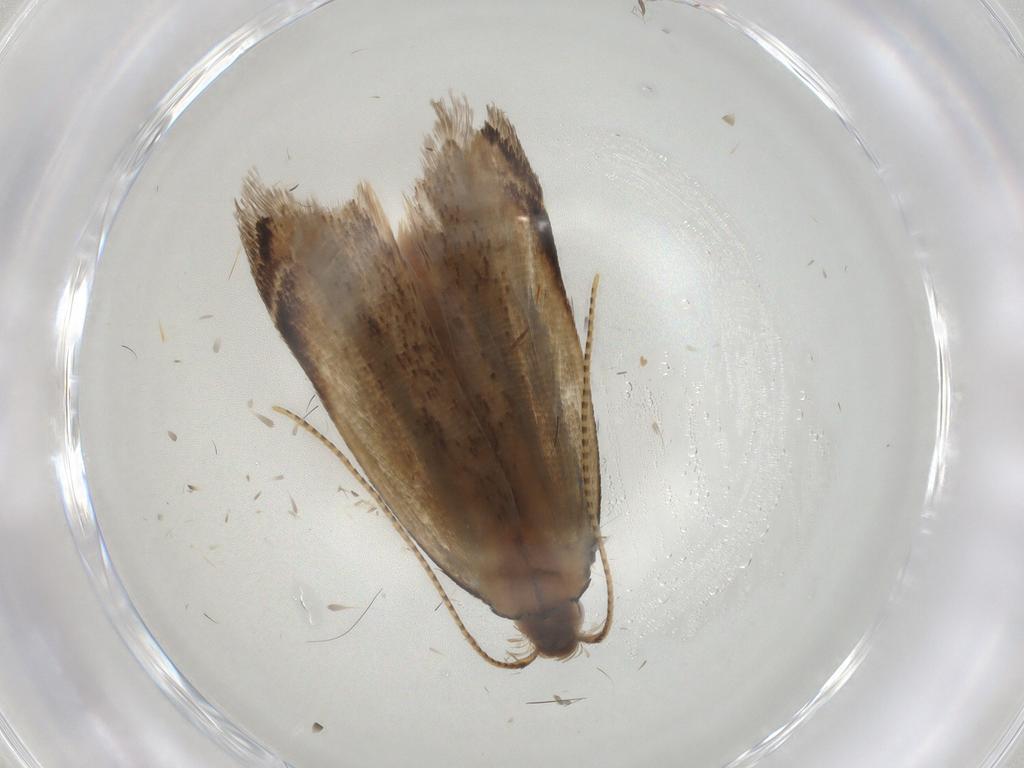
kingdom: Animalia
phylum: Arthropoda
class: Insecta
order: Lepidoptera
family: Blastobasidae
